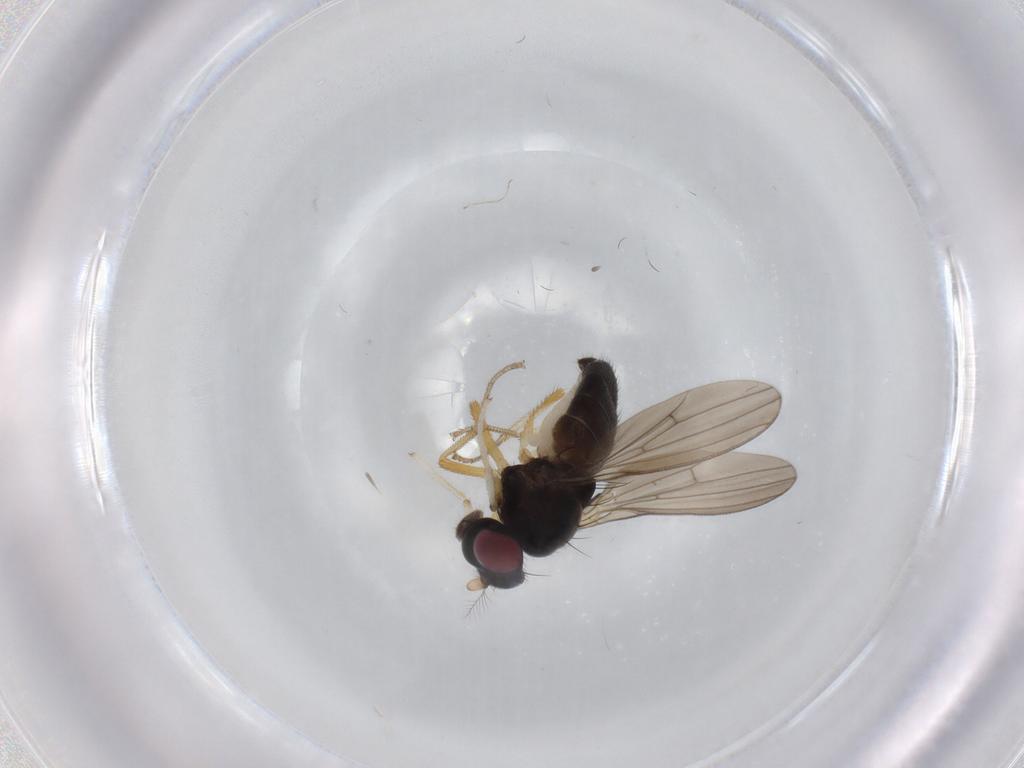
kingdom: Animalia
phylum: Arthropoda
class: Insecta
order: Diptera
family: Lauxaniidae
